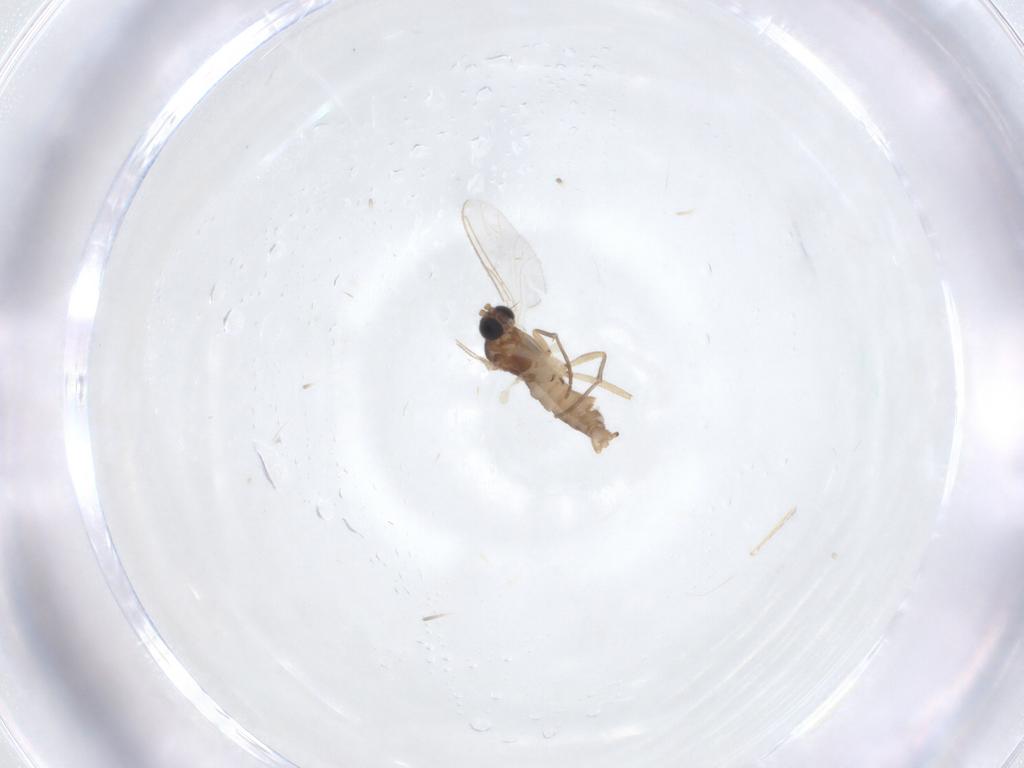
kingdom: Animalia
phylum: Arthropoda
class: Insecta
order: Diptera
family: Sciaridae
